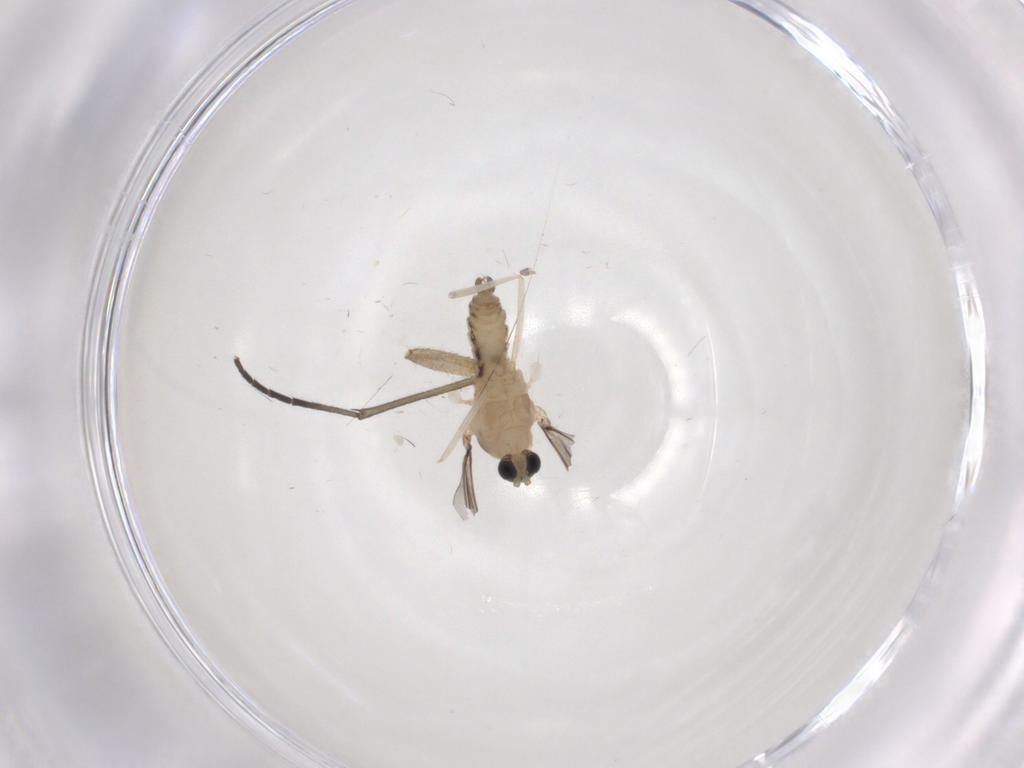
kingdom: Animalia
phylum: Arthropoda
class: Insecta
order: Diptera
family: Cecidomyiidae
